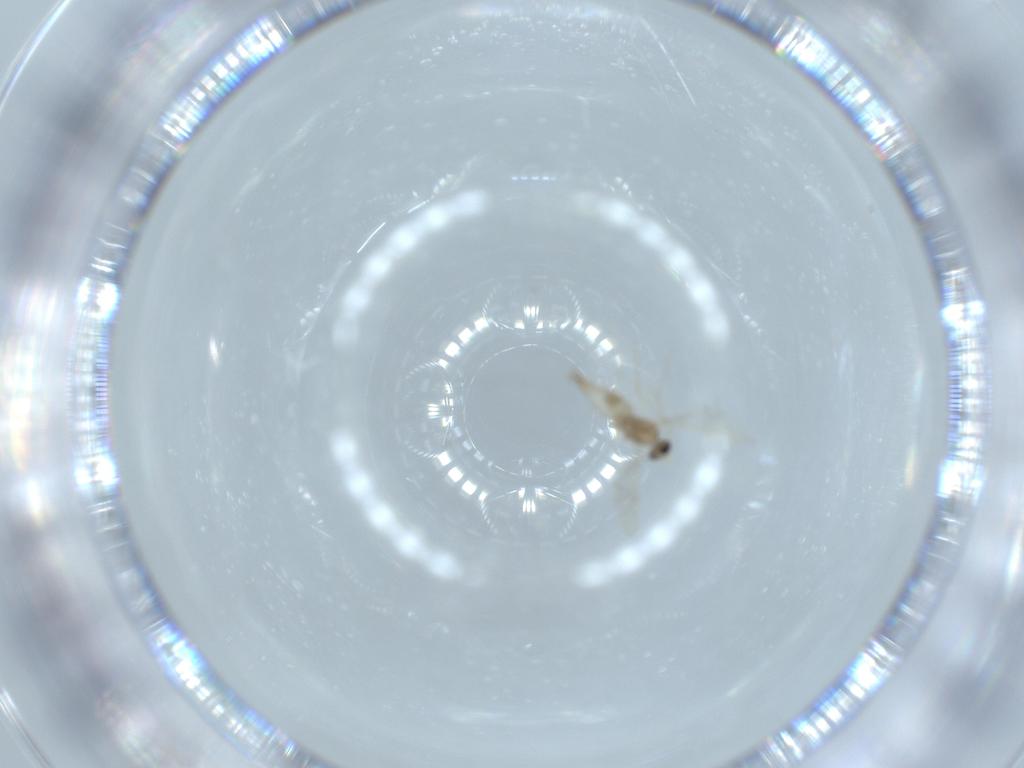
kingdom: Animalia
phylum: Arthropoda
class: Insecta
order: Diptera
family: Cecidomyiidae
